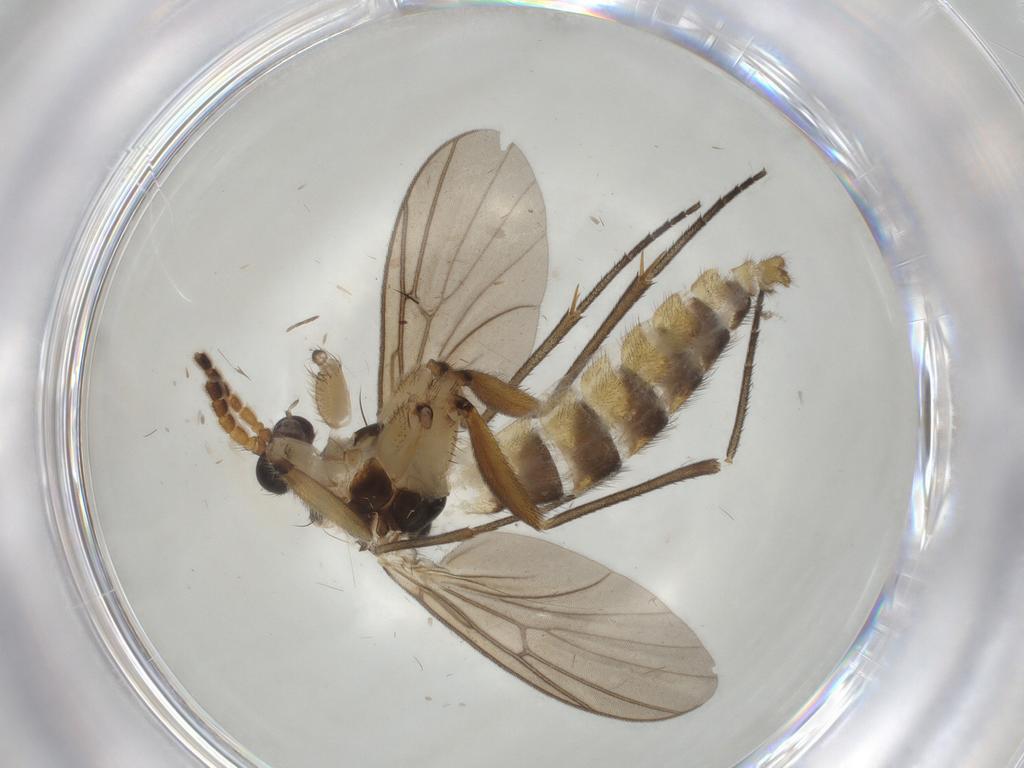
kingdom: Animalia
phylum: Arthropoda
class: Insecta
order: Diptera
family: Mycetophilidae
